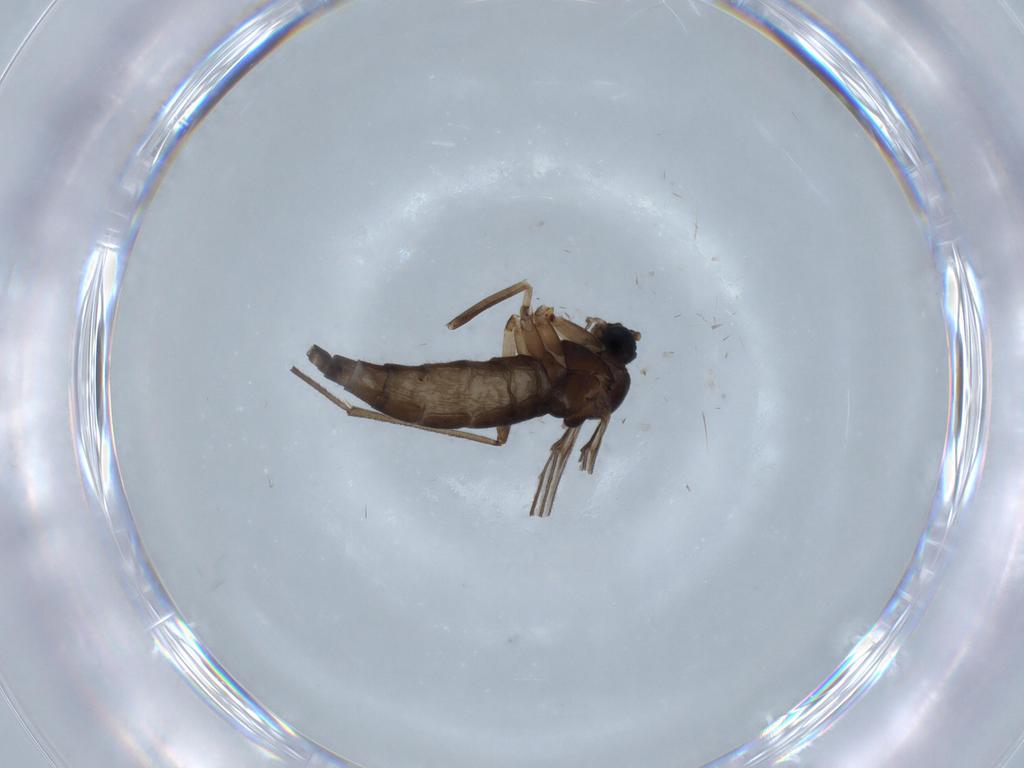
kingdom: Animalia
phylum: Arthropoda
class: Insecta
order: Diptera
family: Sciaridae
